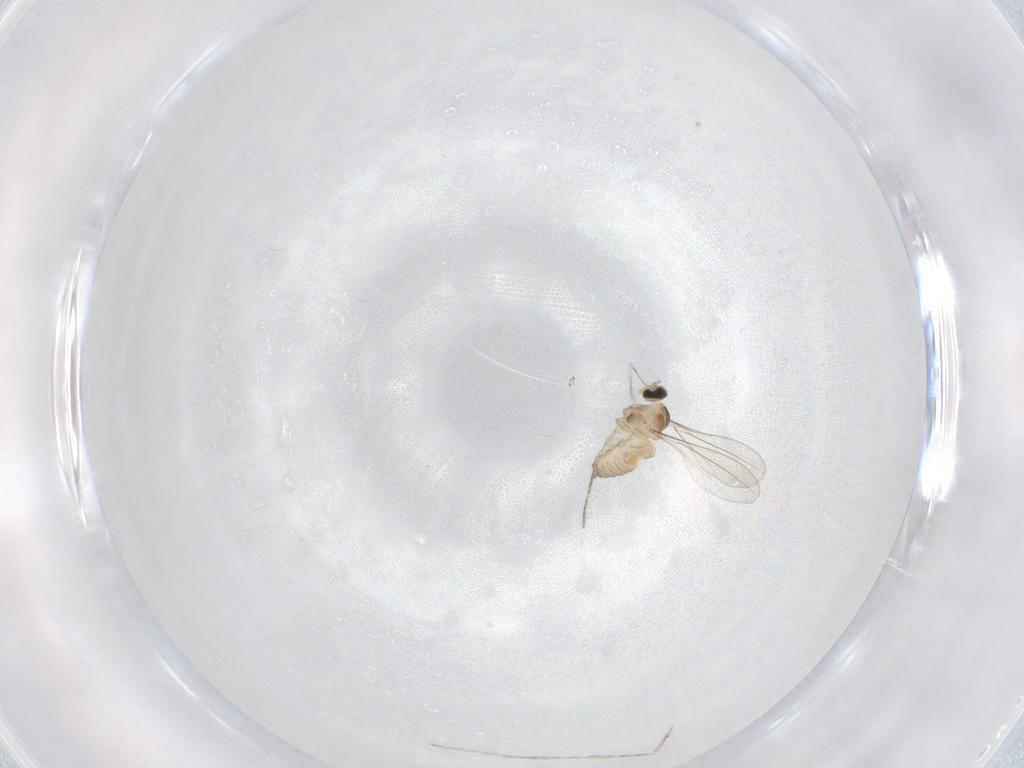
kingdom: Animalia
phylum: Arthropoda
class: Insecta
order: Diptera
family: Cecidomyiidae
